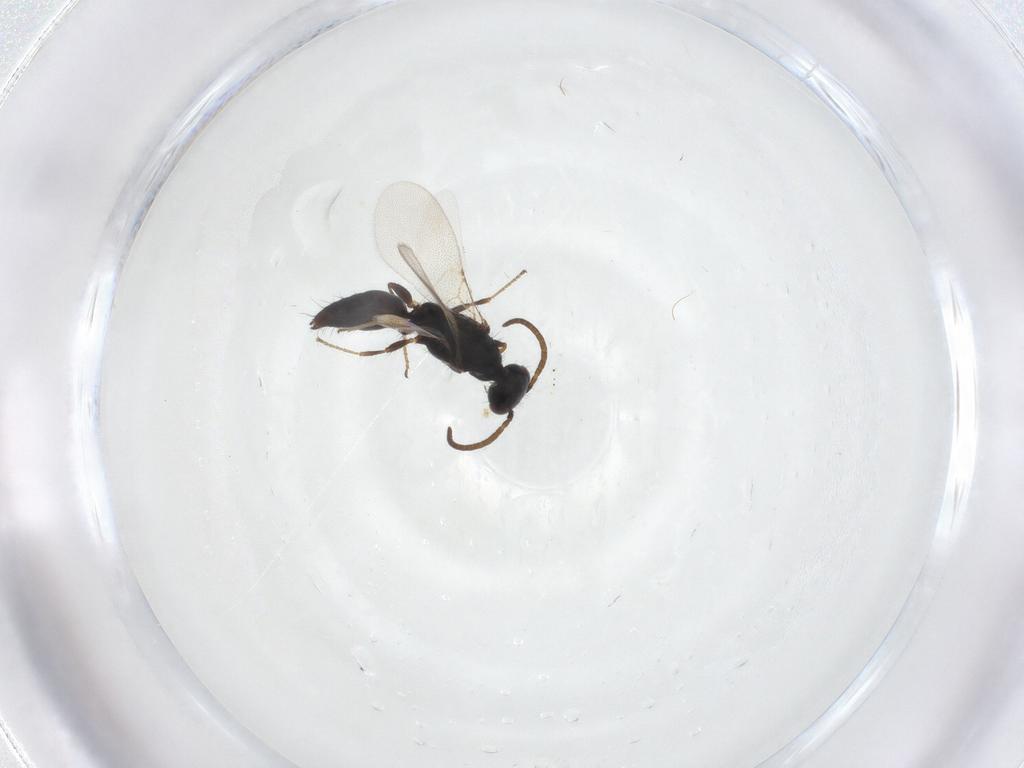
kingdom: Animalia
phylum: Arthropoda
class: Insecta
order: Hymenoptera
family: Bethylidae
